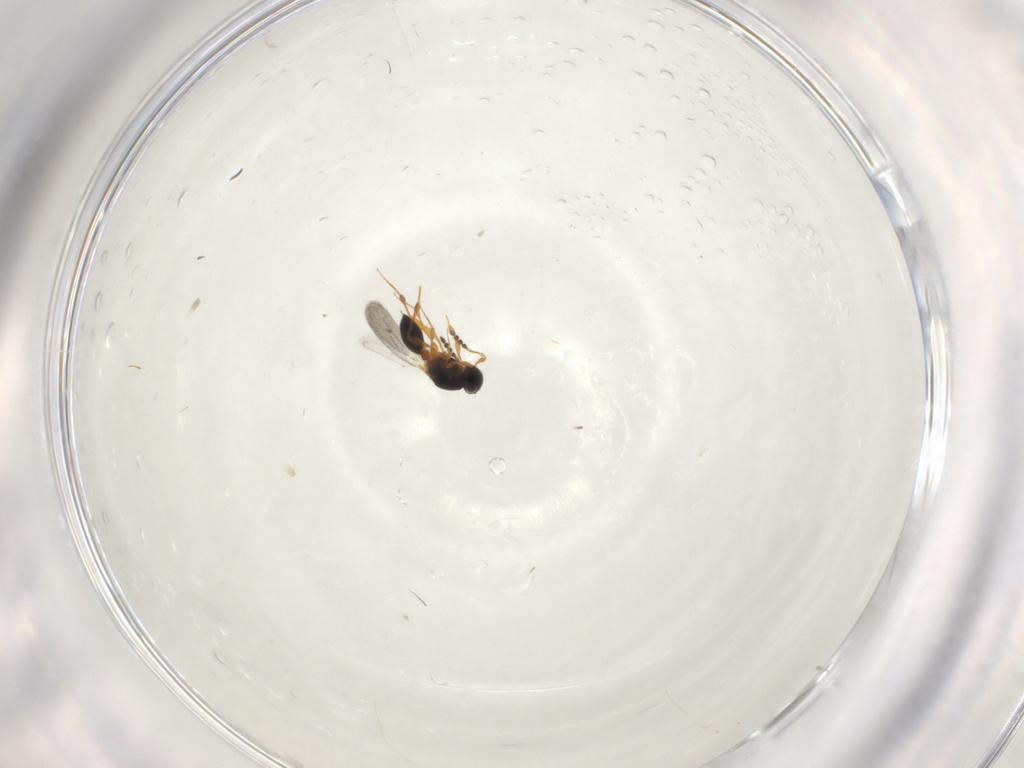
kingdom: Animalia
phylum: Arthropoda
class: Insecta
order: Hymenoptera
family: Platygastridae
